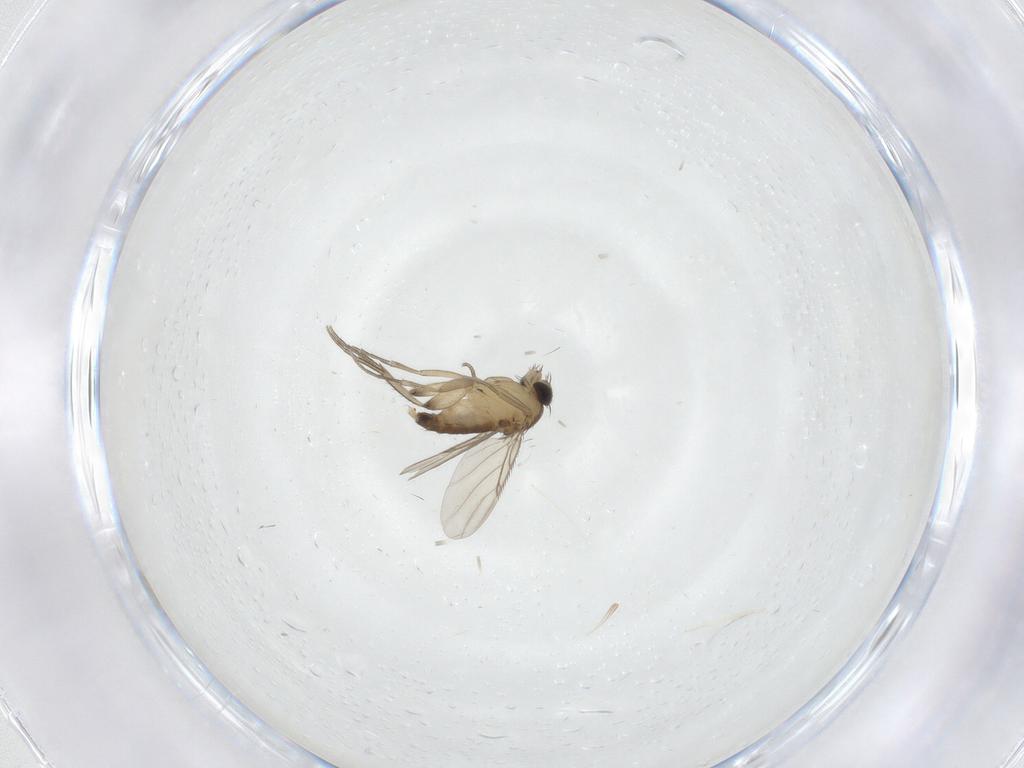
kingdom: Animalia
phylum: Arthropoda
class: Insecta
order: Diptera
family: Phoridae
